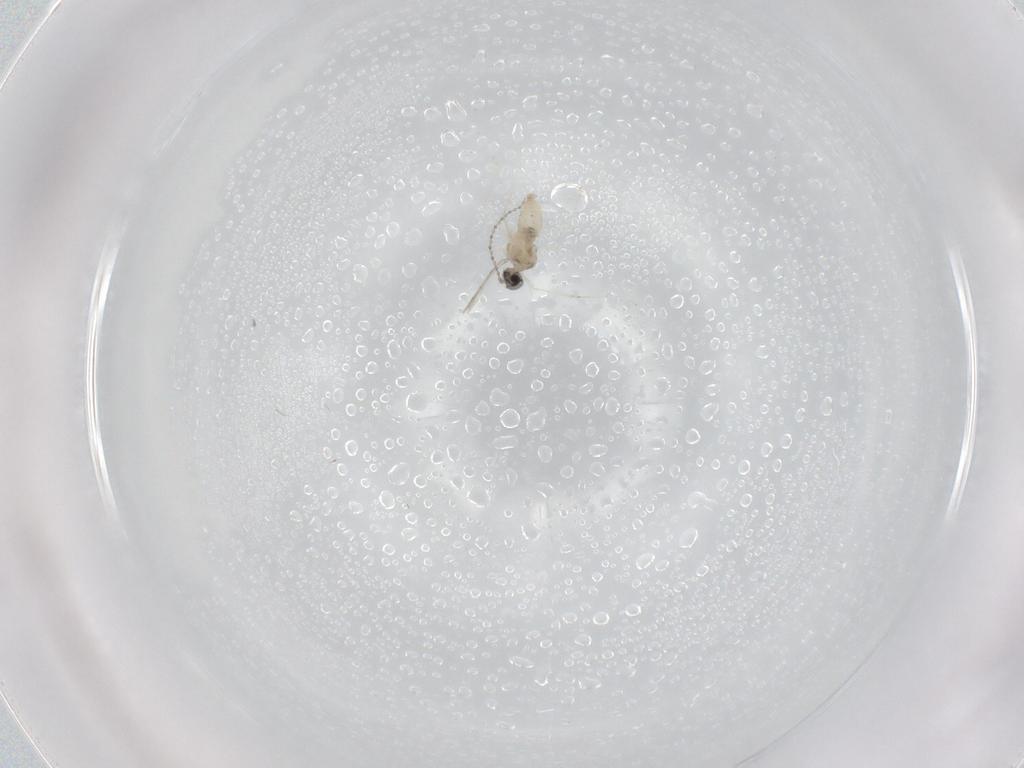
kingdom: Animalia
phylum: Arthropoda
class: Insecta
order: Diptera
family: Cecidomyiidae
